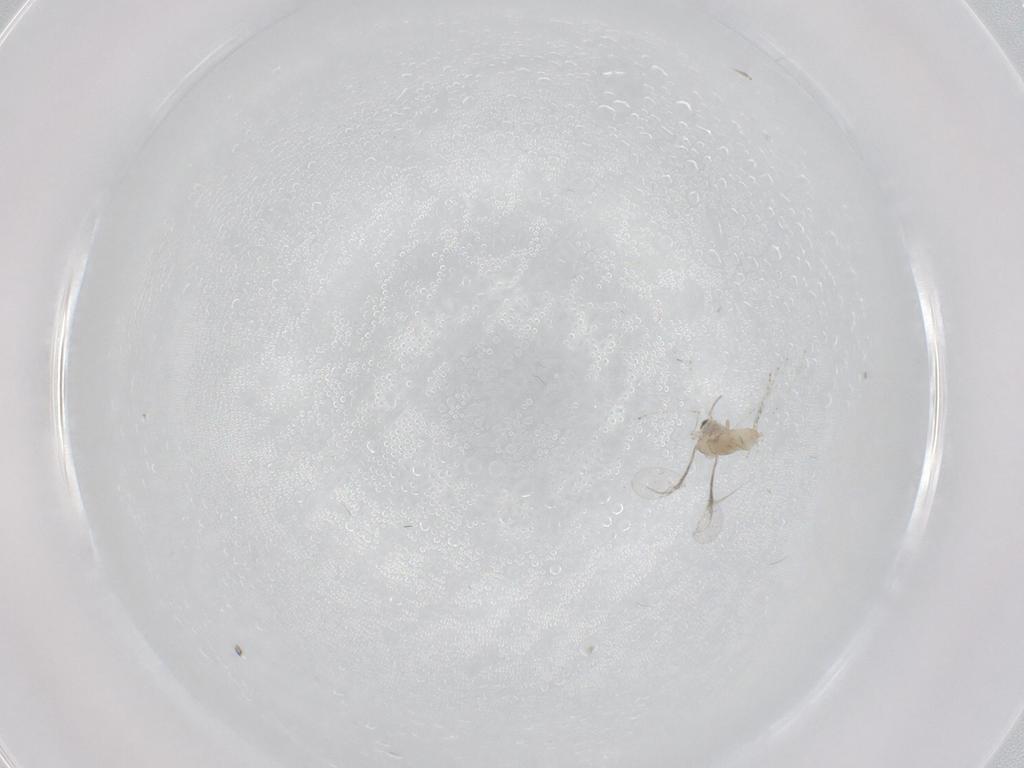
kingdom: Animalia
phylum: Arthropoda
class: Insecta
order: Diptera
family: Cecidomyiidae
